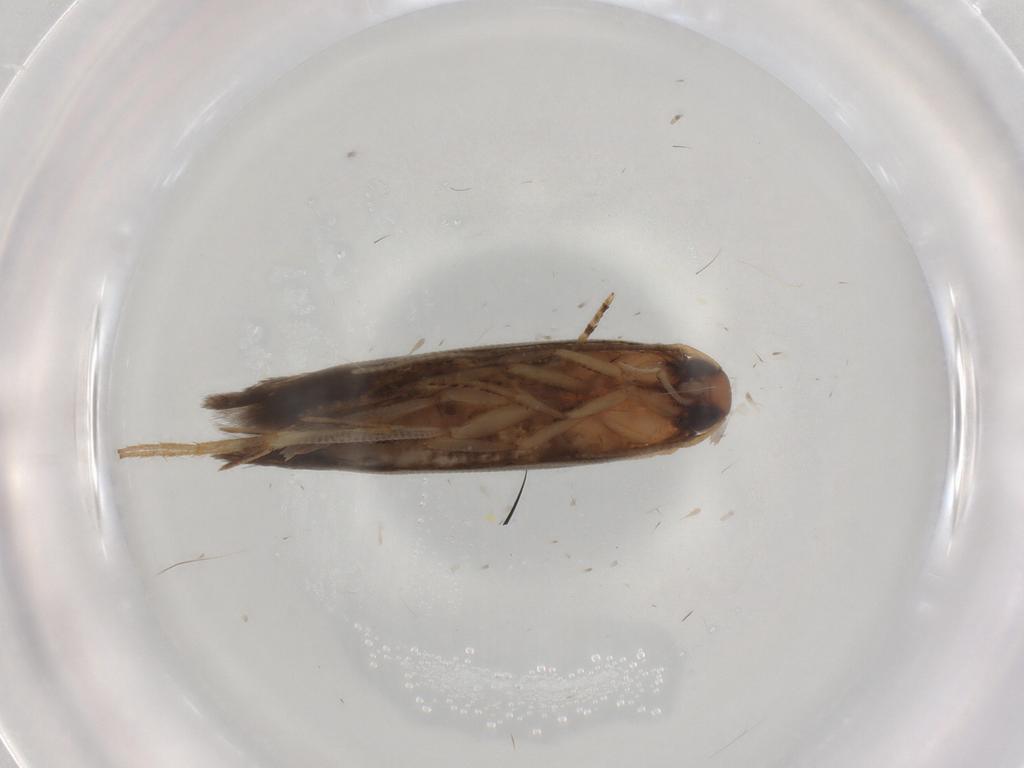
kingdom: Animalia
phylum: Arthropoda
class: Insecta
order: Lepidoptera
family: Cosmopterigidae
